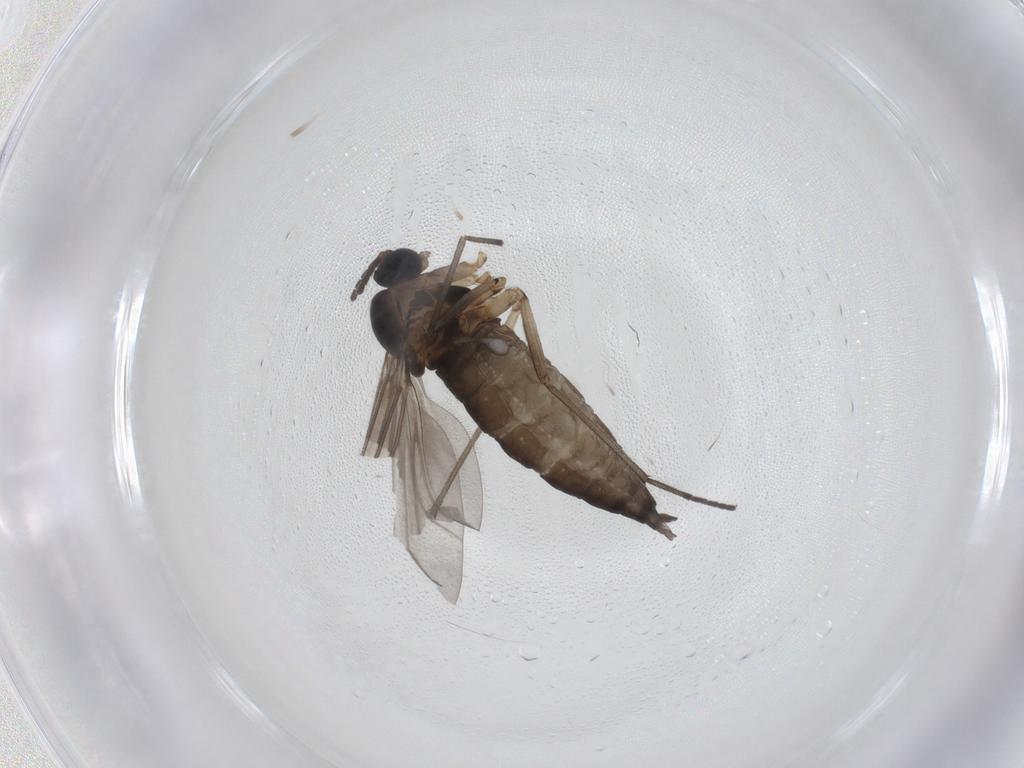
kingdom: Animalia
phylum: Arthropoda
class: Insecta
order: Diptera
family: Sciaridae
